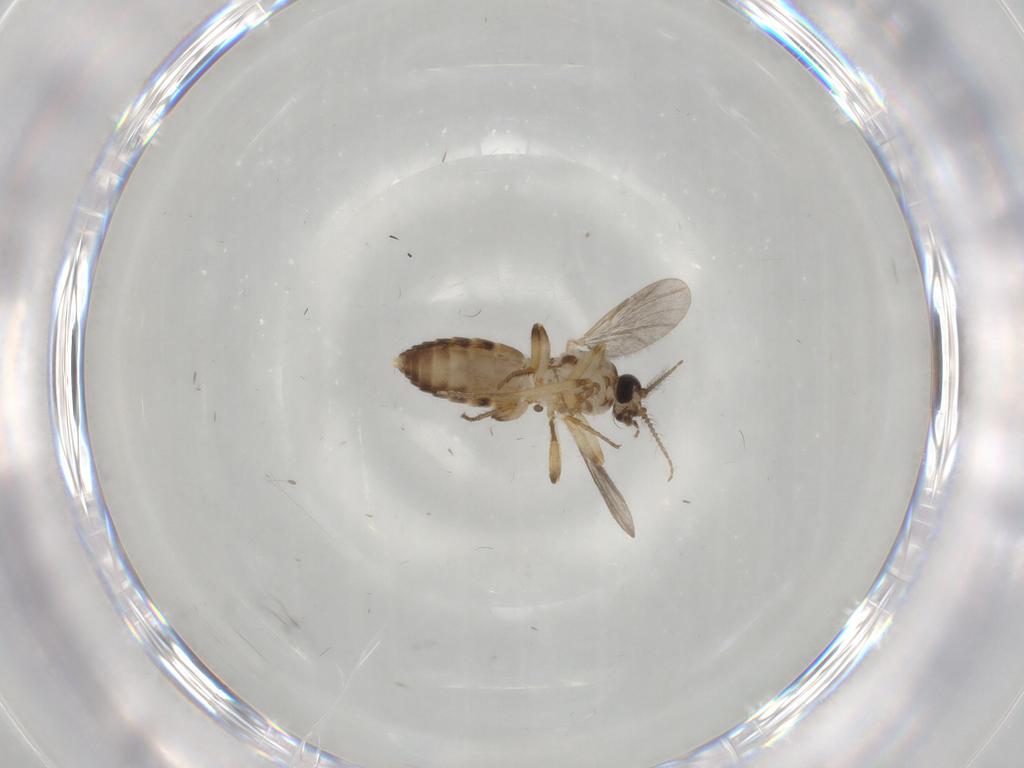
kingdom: Animalia
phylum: Arthropoda
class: Insecta
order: Diptera
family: Ceratopogonidae
